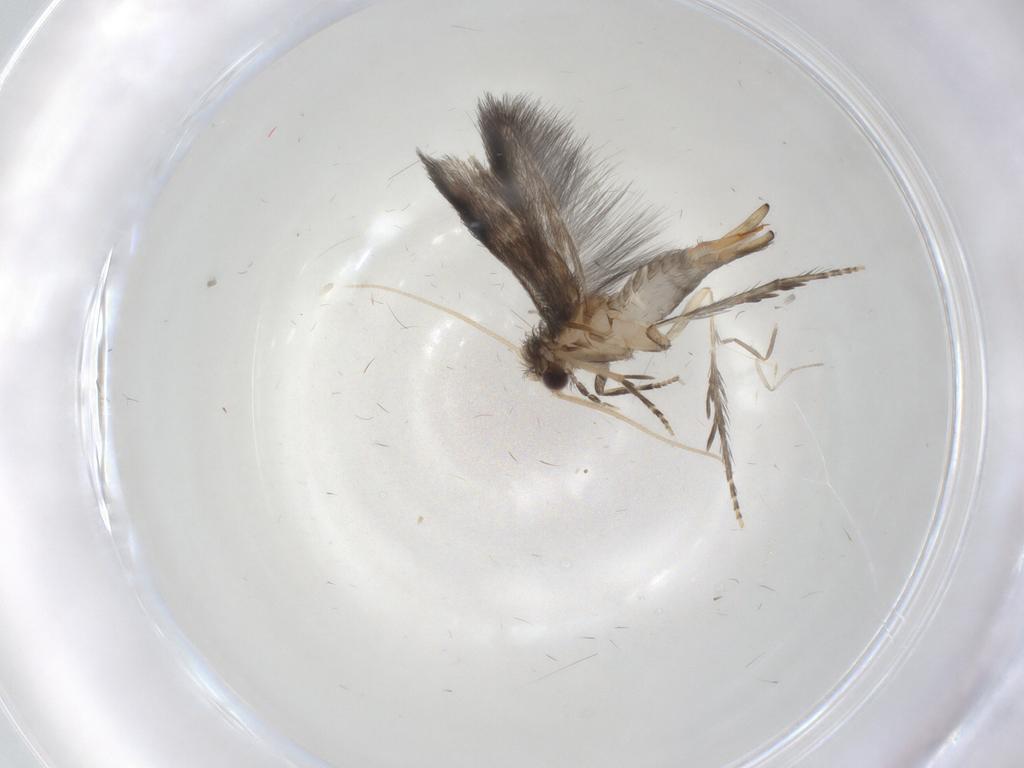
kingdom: Animalia
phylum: Arthropoda
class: Insecta
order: Trichoptera
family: Hydroptilidae
